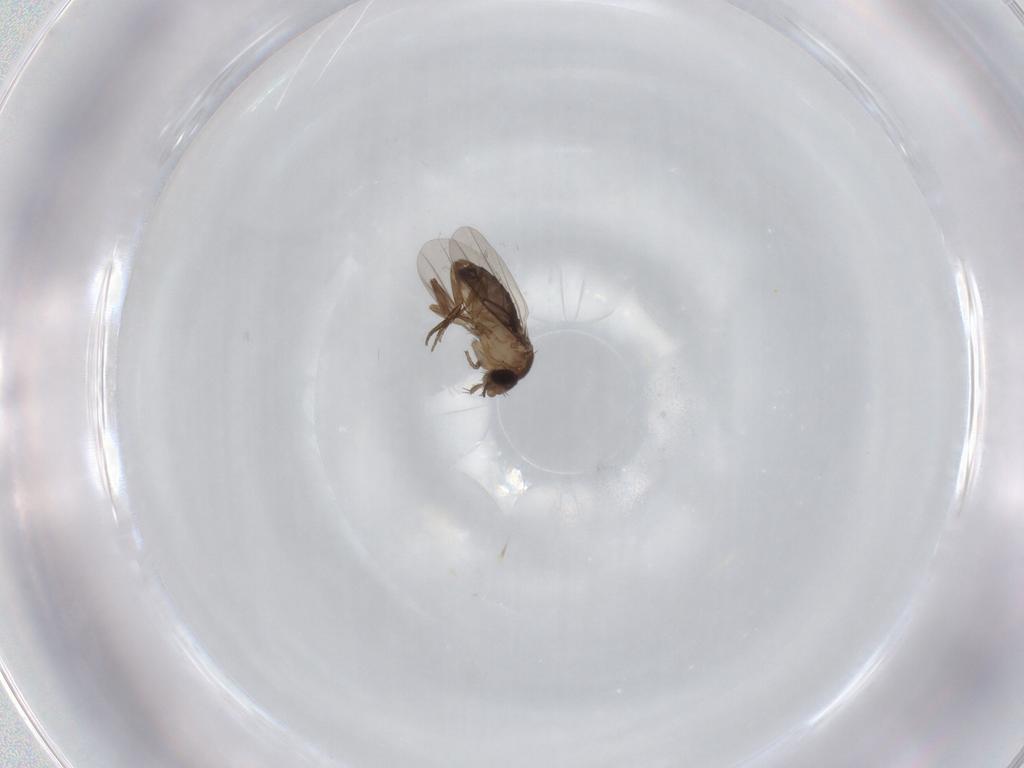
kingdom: Animalia
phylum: Arthropoda
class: Insecta
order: Diptera
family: Phoridae
